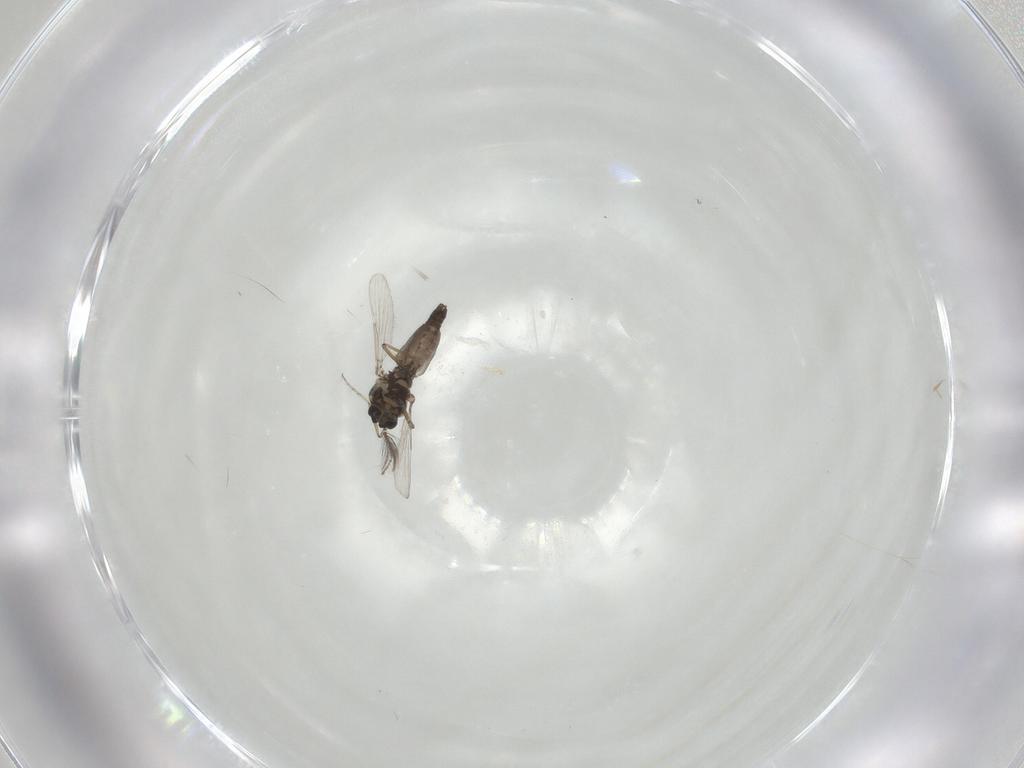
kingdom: Animalia
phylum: Arthropoda
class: Insecta
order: Diptera
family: Ceratopogonidae
